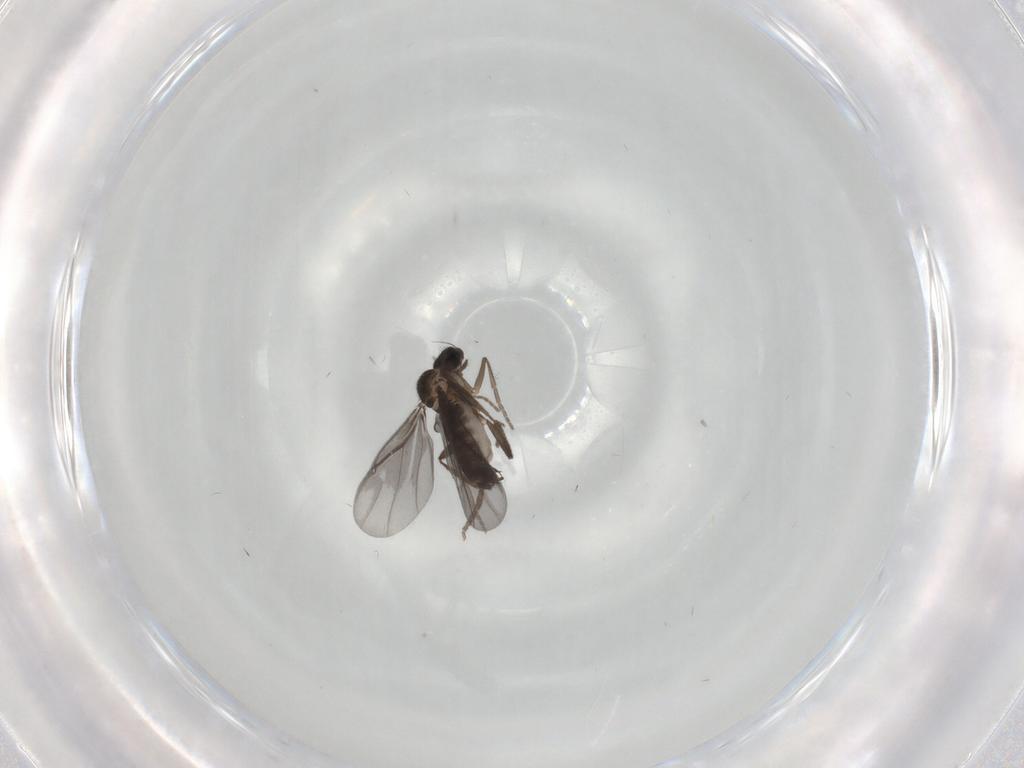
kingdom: Animalia
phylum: Arthropoda
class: Insecta
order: Diptera
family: Phoridae
